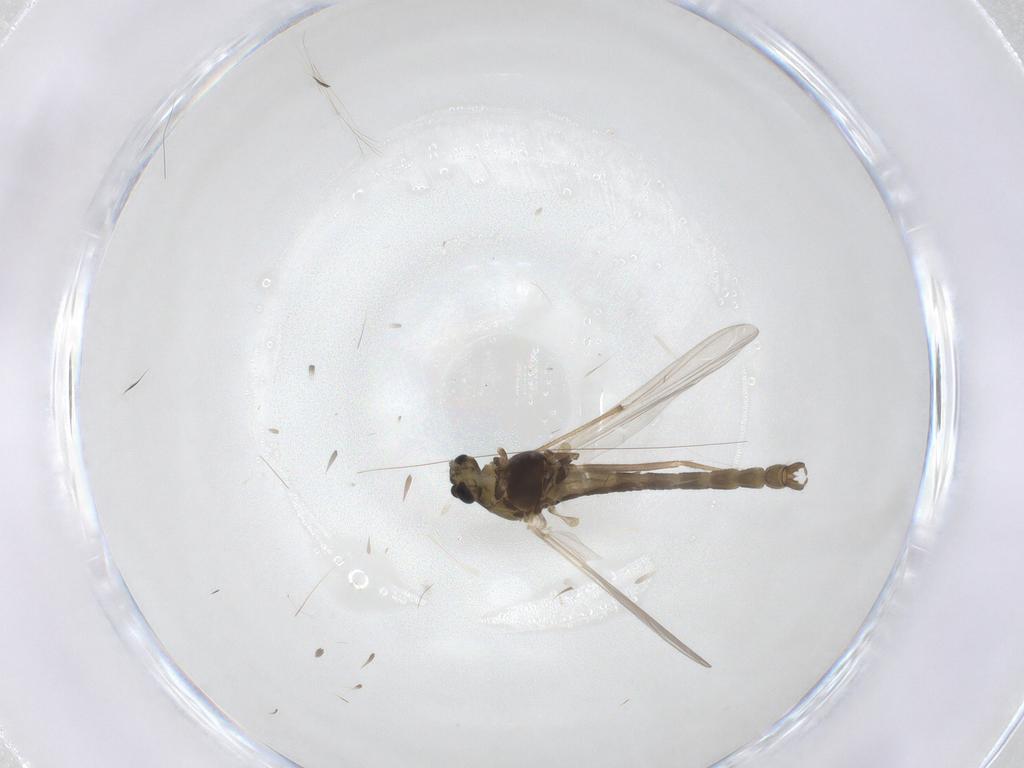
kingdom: Animalia
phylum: Arthropoda
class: Insecta
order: Diptera
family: Chironomidae
